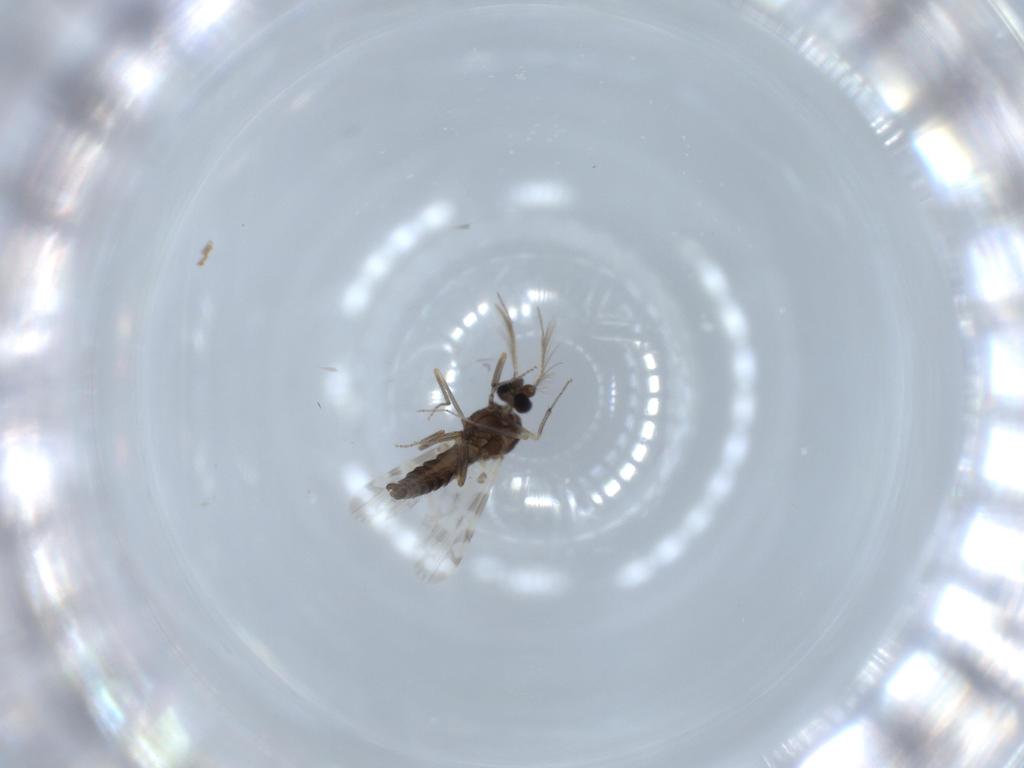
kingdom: Animalia
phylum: Arthropoda
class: Insecta
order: Diptera
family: Ceratopogonidae
